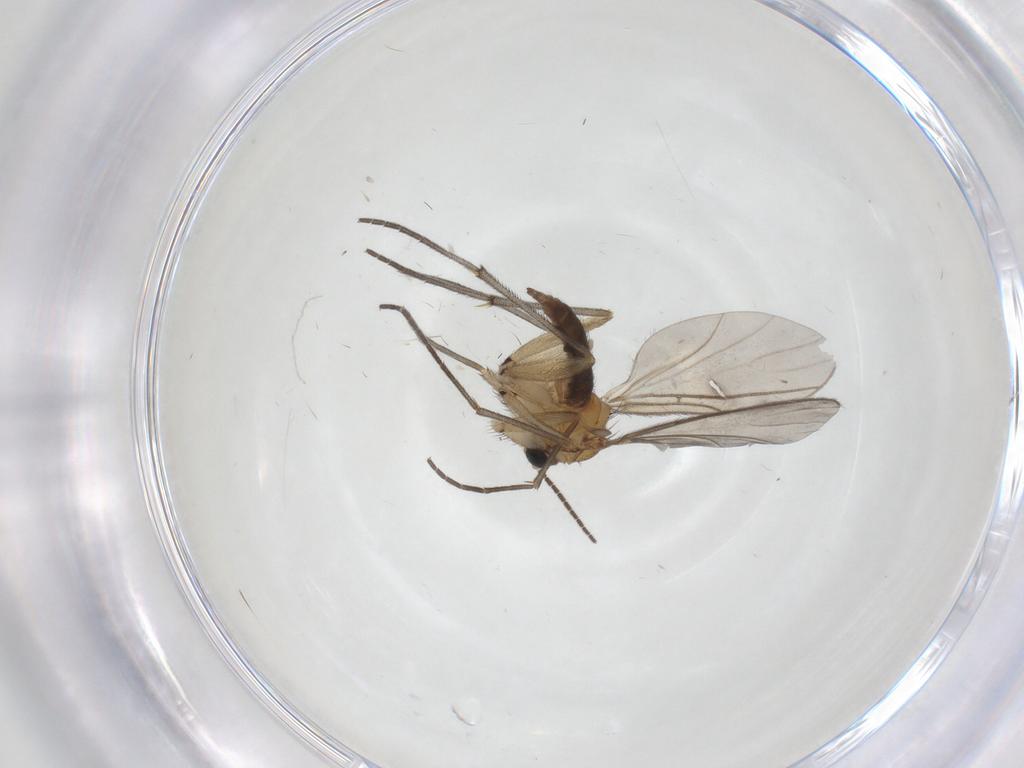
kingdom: Animalia
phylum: Arthropoda
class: Insecta
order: Diptera
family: Sciaridae
